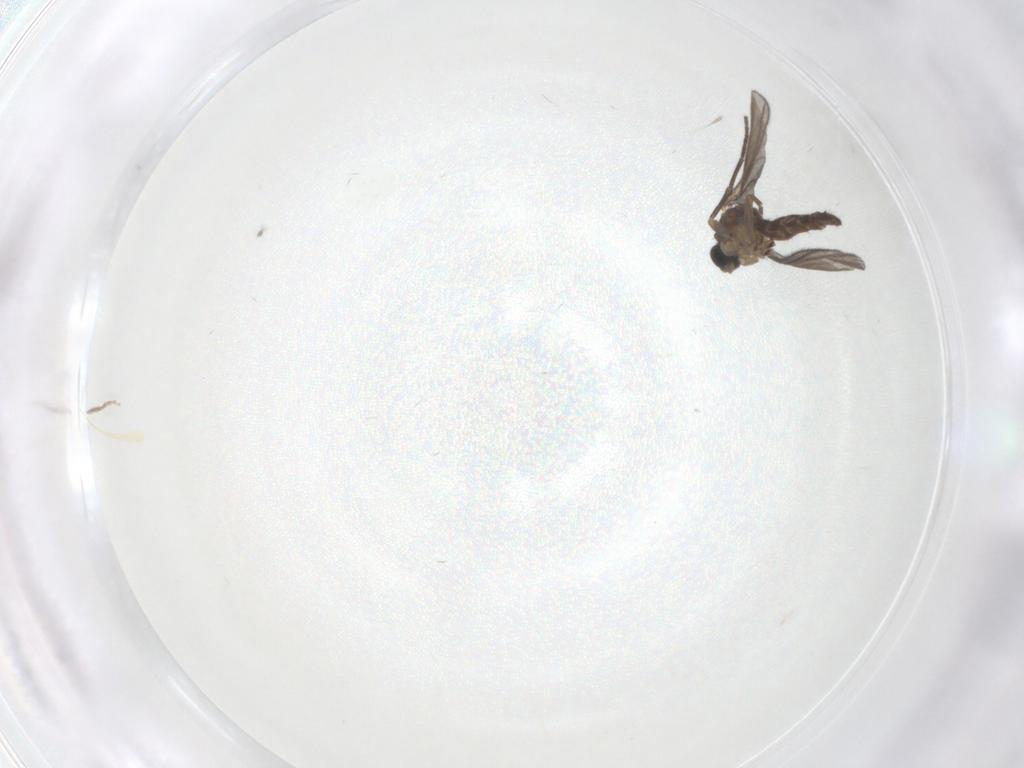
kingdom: Animalia
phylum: Arthropoda
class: Insecta
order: Diptera
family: Sciaridae
